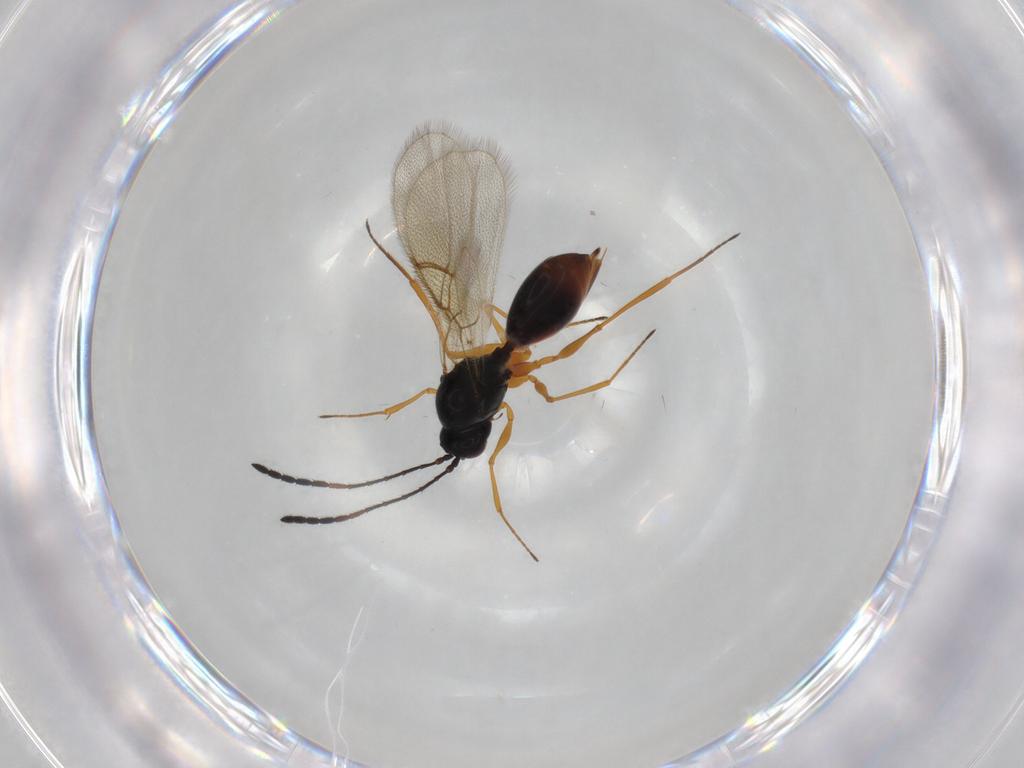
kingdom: Animalia
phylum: Arthropoda
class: Insecta
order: Hymenoptera
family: Figitidae
